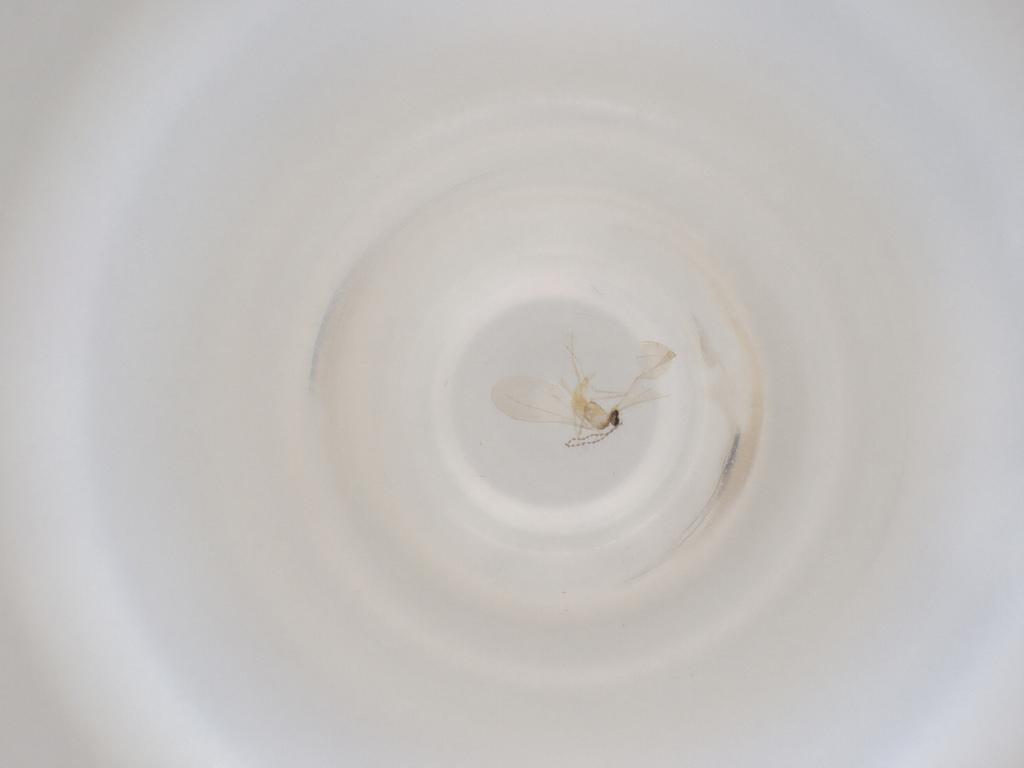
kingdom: Animalia
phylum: Arthropoda
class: Insecta
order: Diptera
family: Cecidomyiidae
